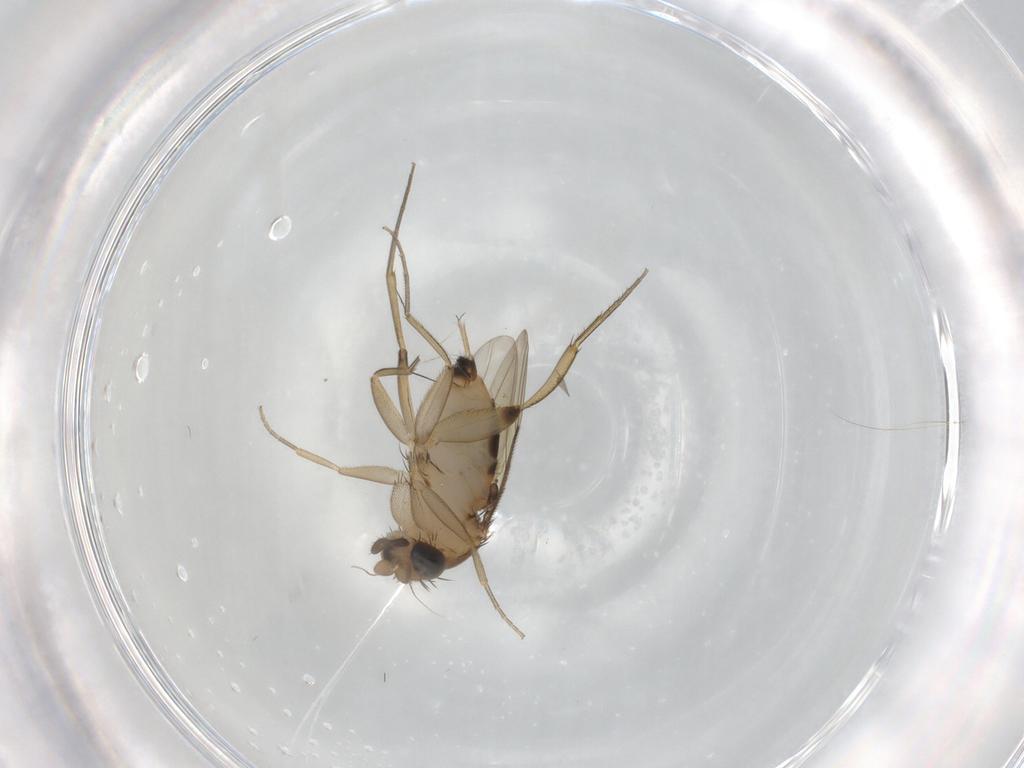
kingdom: Animalia
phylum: Arthropoda
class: Insecta
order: Diptera
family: Phoridae
